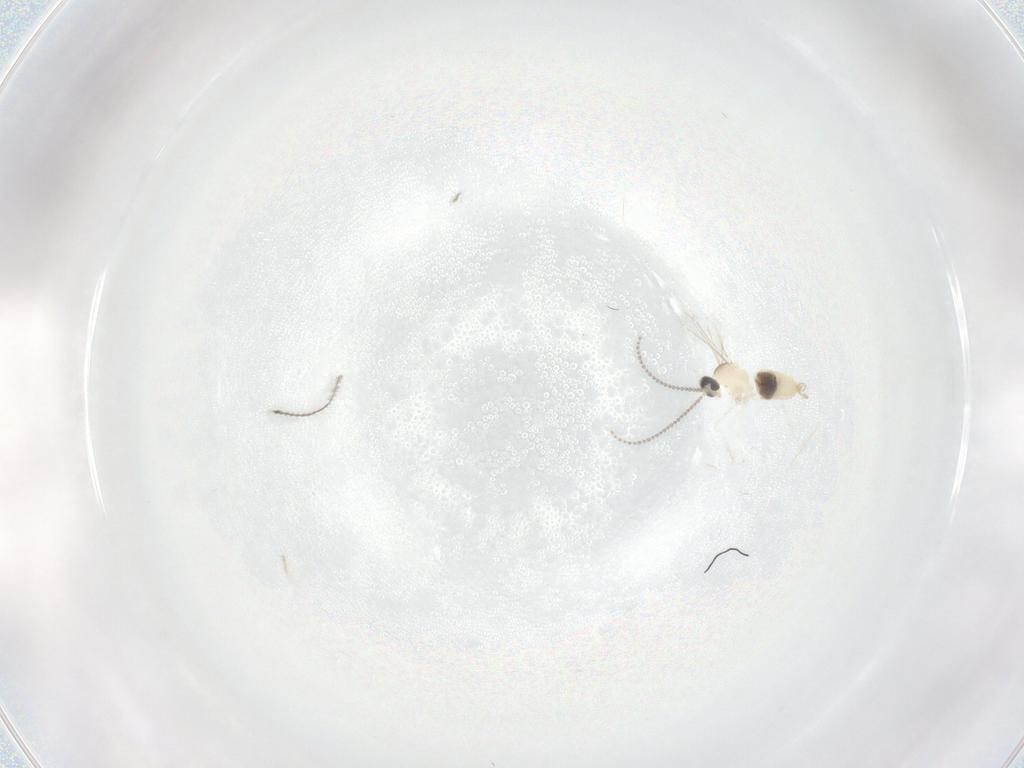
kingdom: Animalia
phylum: Arthropoda
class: Insecta
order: Diptera
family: Cecidomyiidae
